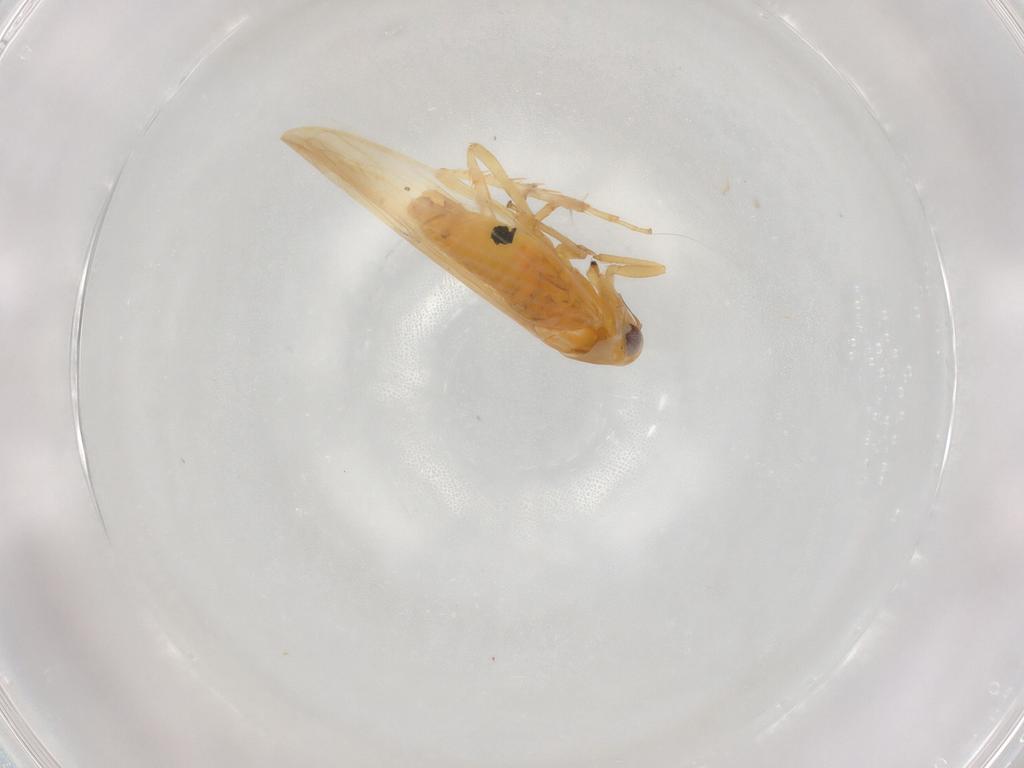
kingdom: Animalia
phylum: Arthropoda
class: Insecta
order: Hemiptera
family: Cicadellidae
